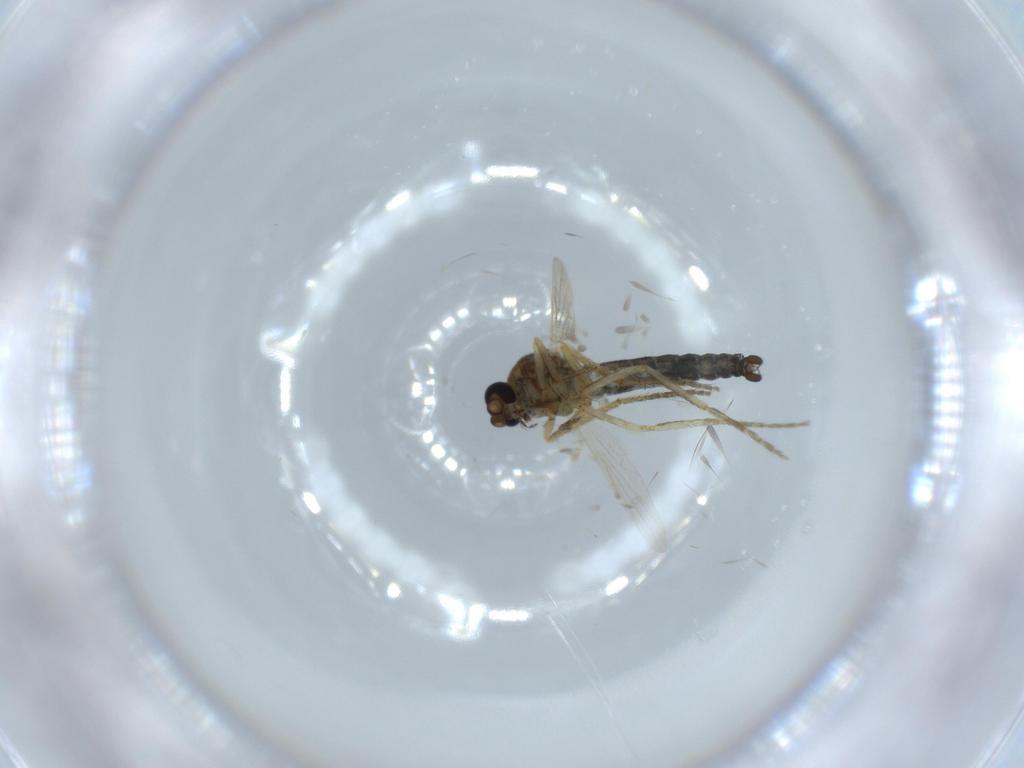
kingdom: Animalia
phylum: Arthropoda
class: Insecta
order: Diptera
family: Ceratopogonidae
